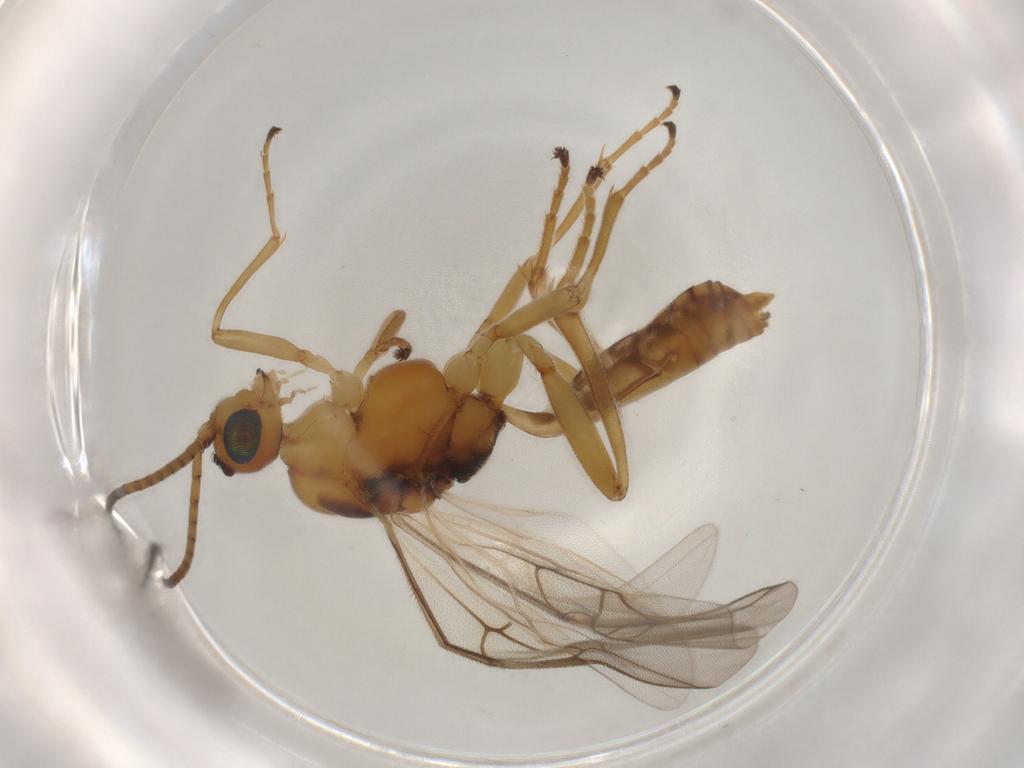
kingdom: Animalia
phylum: Arthropoda
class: Insecta
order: Hymenoptera
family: Braconidae
